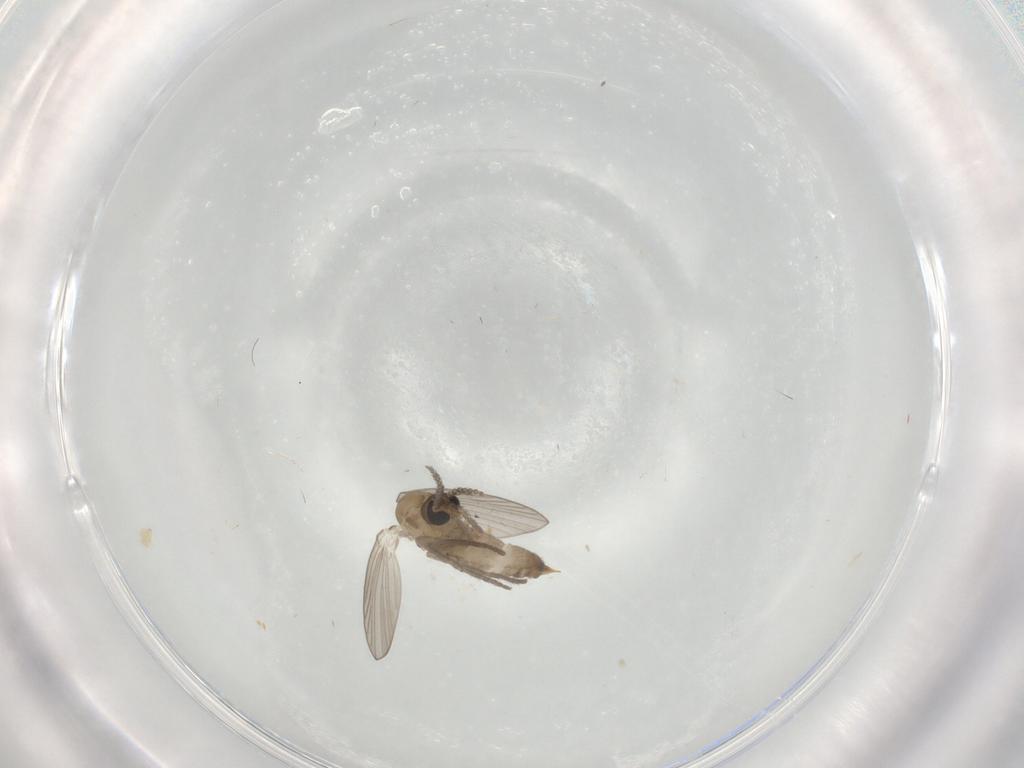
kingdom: Animalia
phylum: Arthropoda
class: Insecta
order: Diptera
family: Psychodidae
